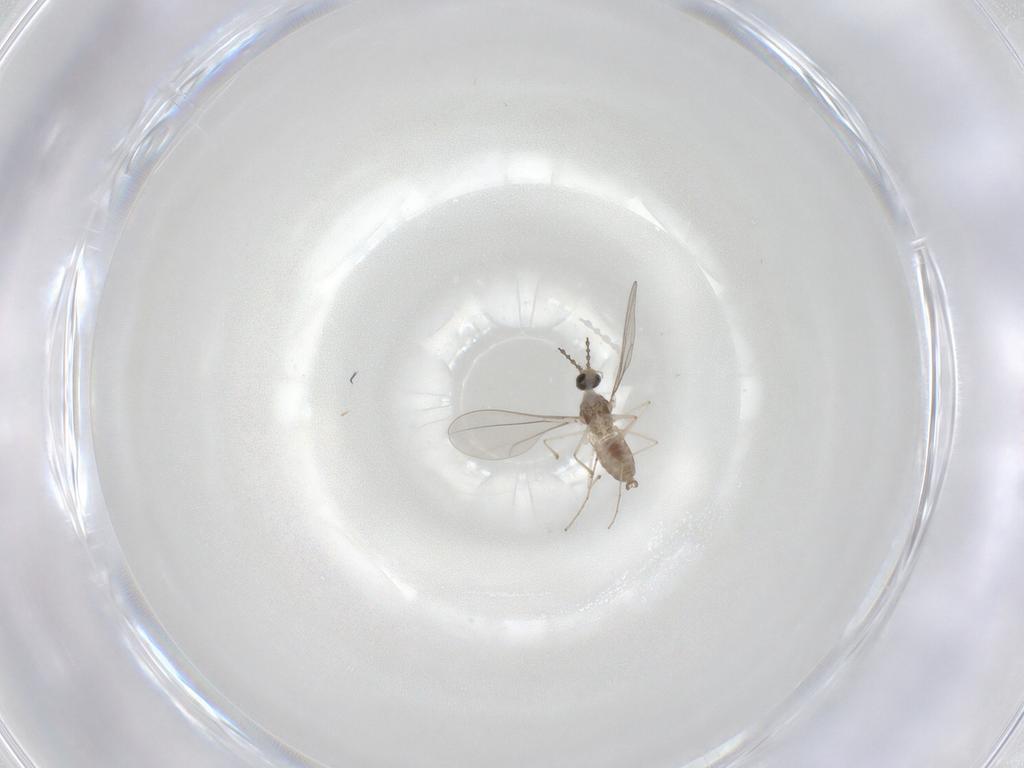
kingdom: Animalia
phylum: Arthropoda
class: Insecta
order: Diptera
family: Cecidomyiidae
